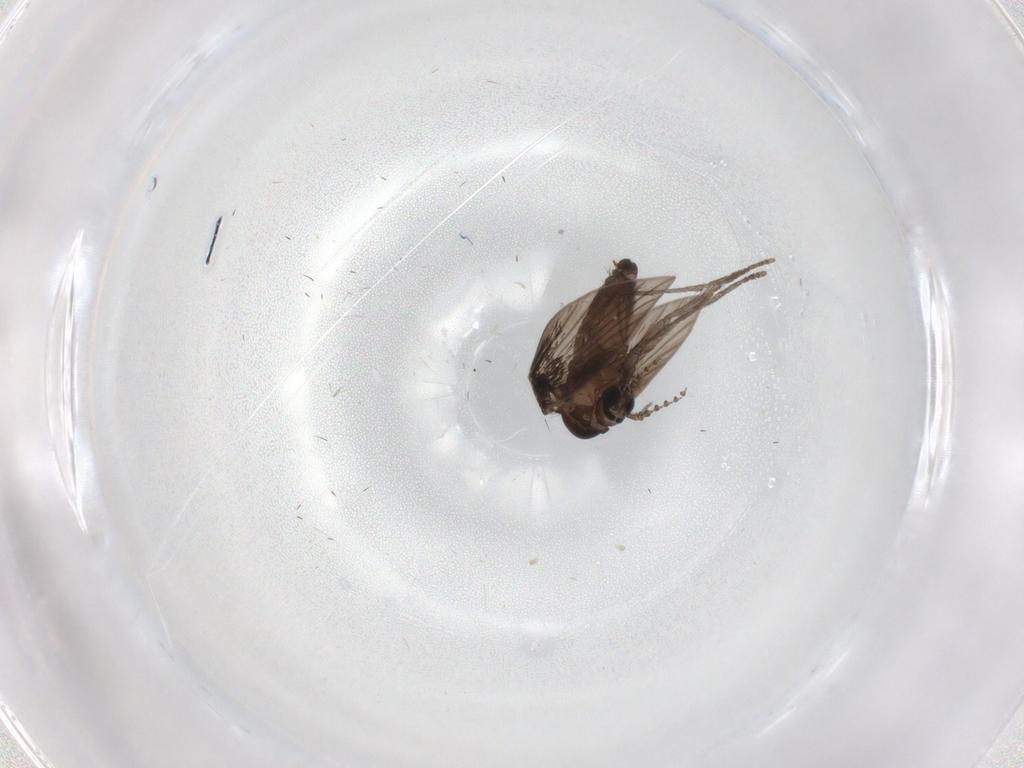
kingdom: Animalia
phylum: Arthropoda
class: Insecta
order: Diptera
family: Psychodidae
